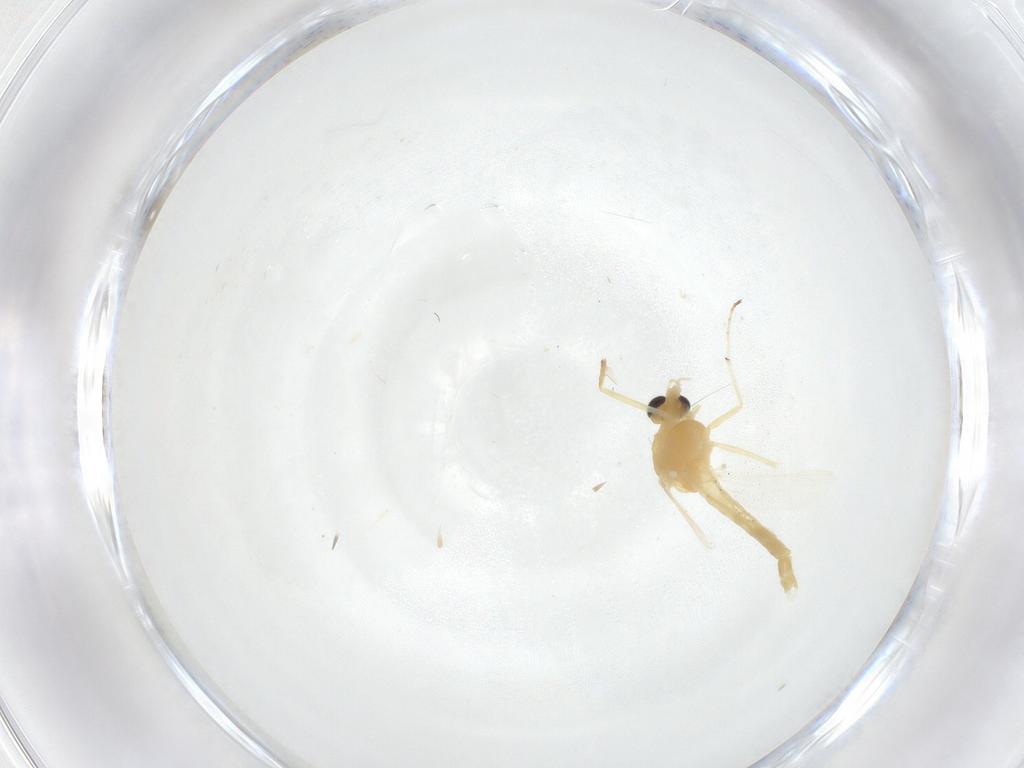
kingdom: Animalia
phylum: Arthropoda
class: Insecta
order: Diptera
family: Chironomidae
